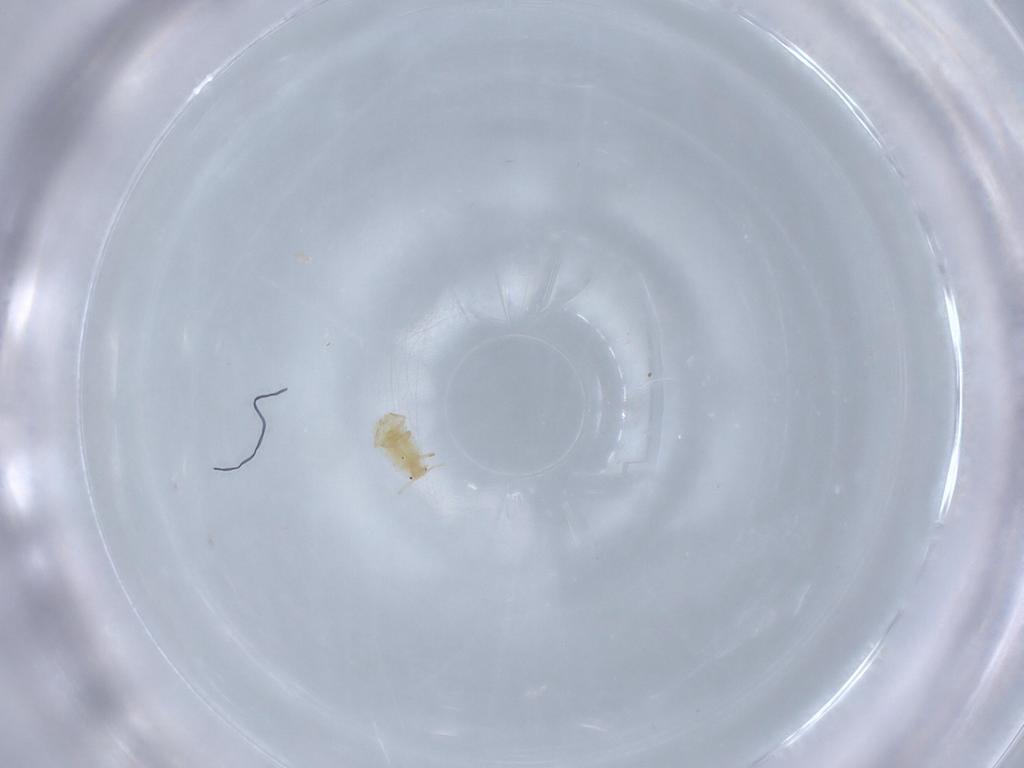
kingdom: Animalia
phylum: Arthropoda
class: Insecta
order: Hemiptera
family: Coccoidea_incertae_sedis
